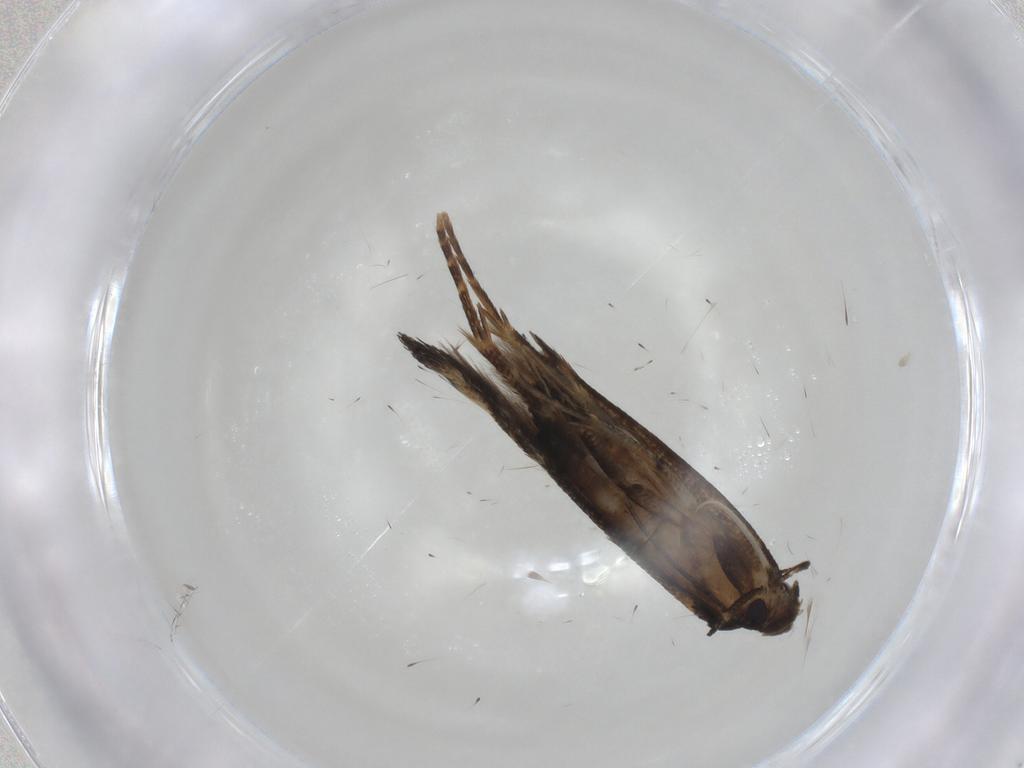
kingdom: Animalia
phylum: Arthropoda
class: Insecta
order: Lepidoptera
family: Cosmopterigidae
